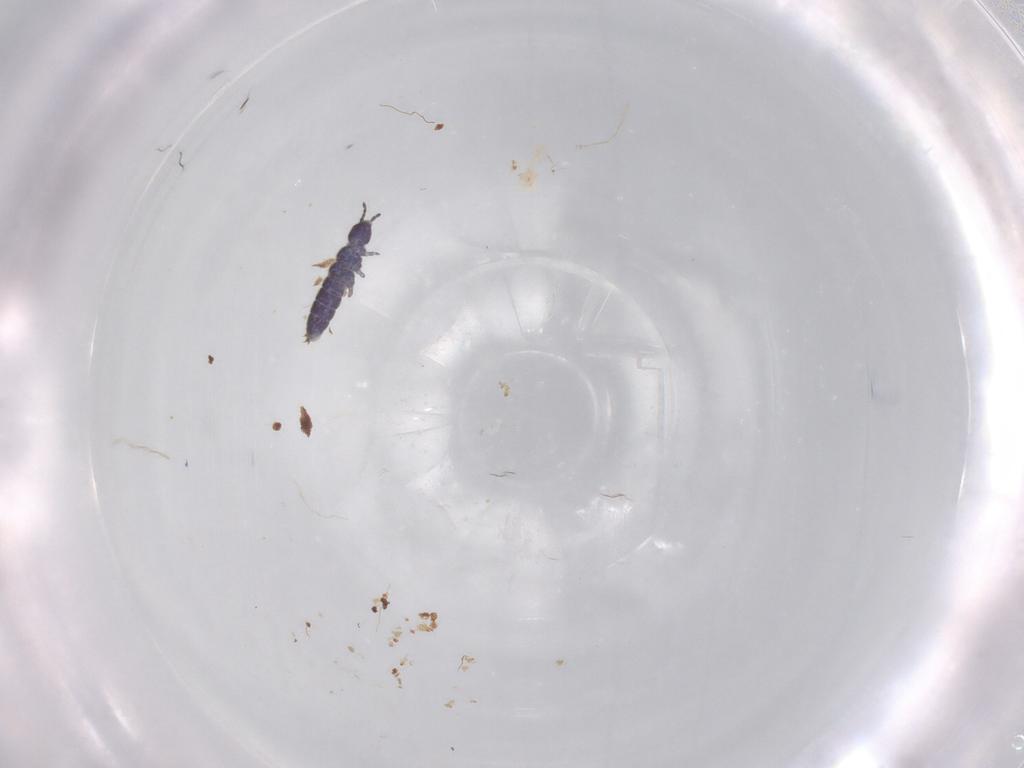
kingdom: Animalia
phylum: Arthropoda
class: Collembola
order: Entomobryomorpha
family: Isotomidae
